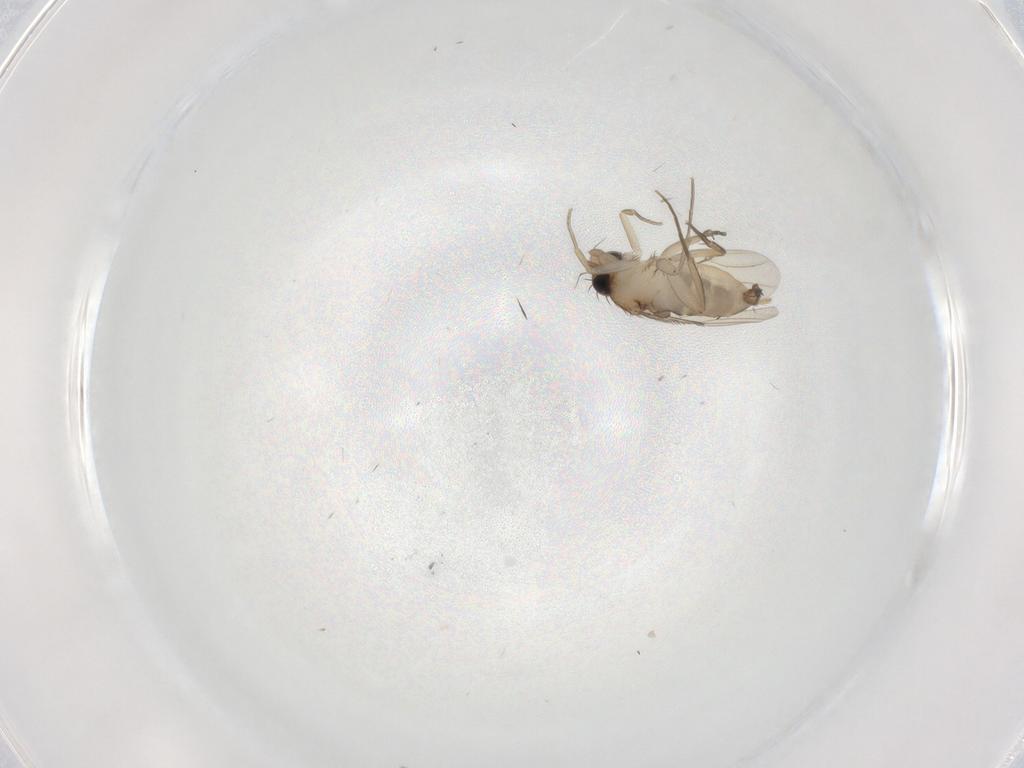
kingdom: Animalia
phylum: Arthropoda
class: Insecta
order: Diptera
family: Phoridae
